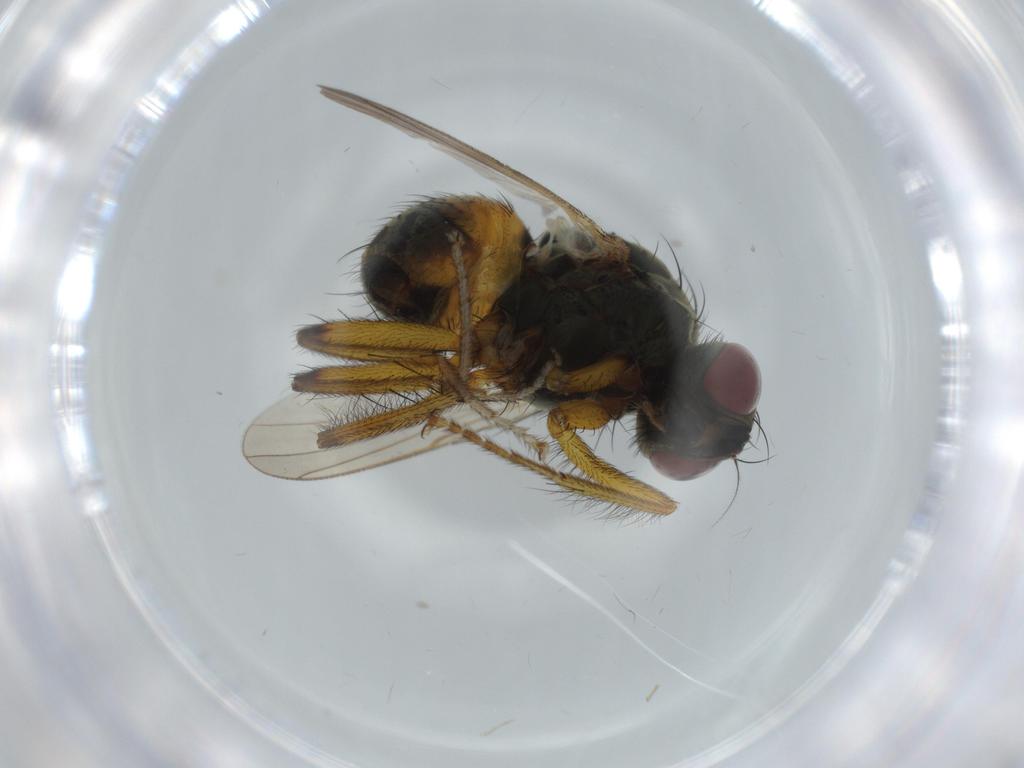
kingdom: Animalia
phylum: Arthropoda
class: Insecta
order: Diptera
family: Muscidae
